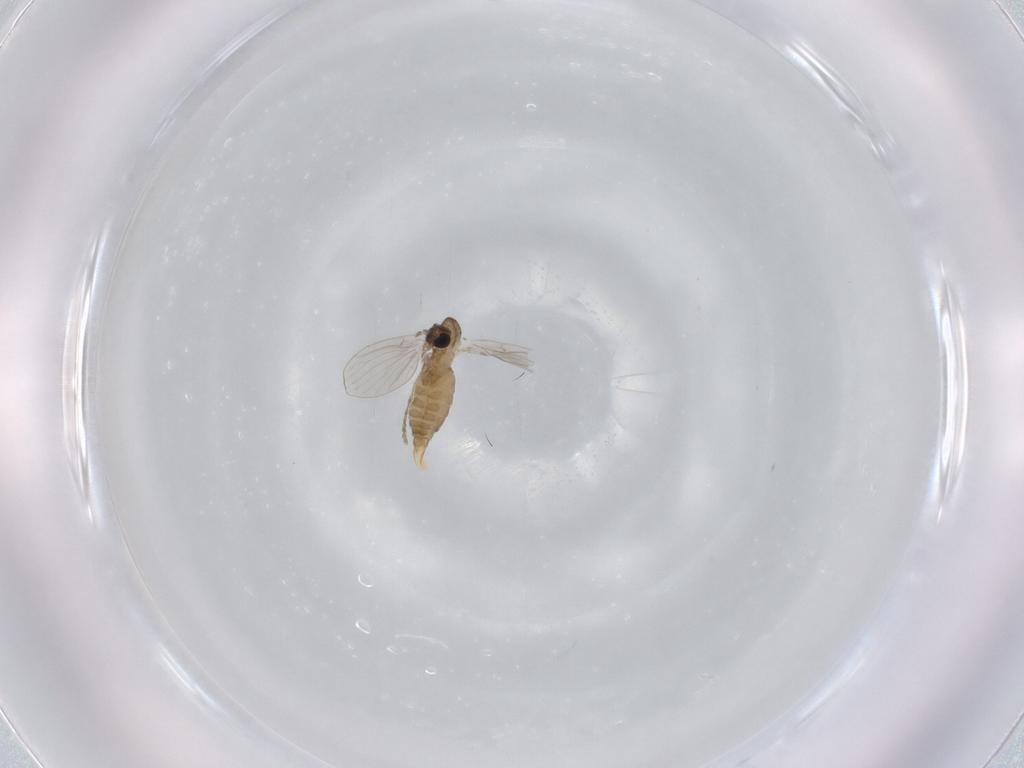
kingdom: Animalia
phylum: Arthropoda
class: Insecta
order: Diptera
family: Psychodidae
